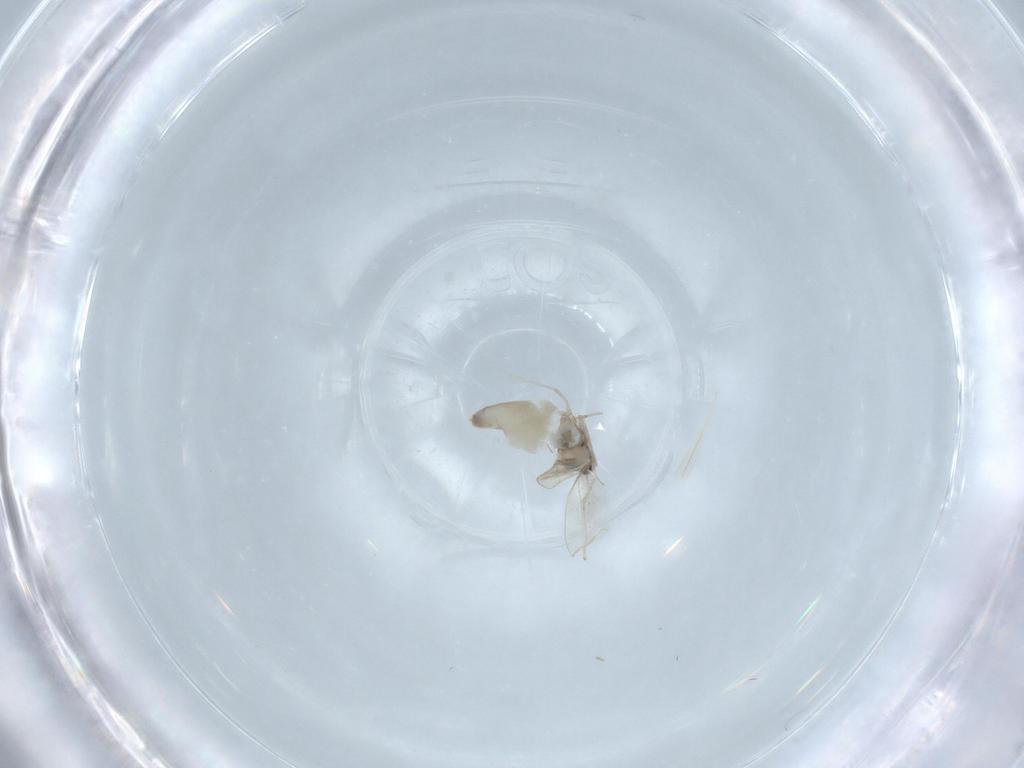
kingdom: Animalia
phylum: Arthropoda
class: Insecta
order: Diptera
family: Cecidomyiidae
